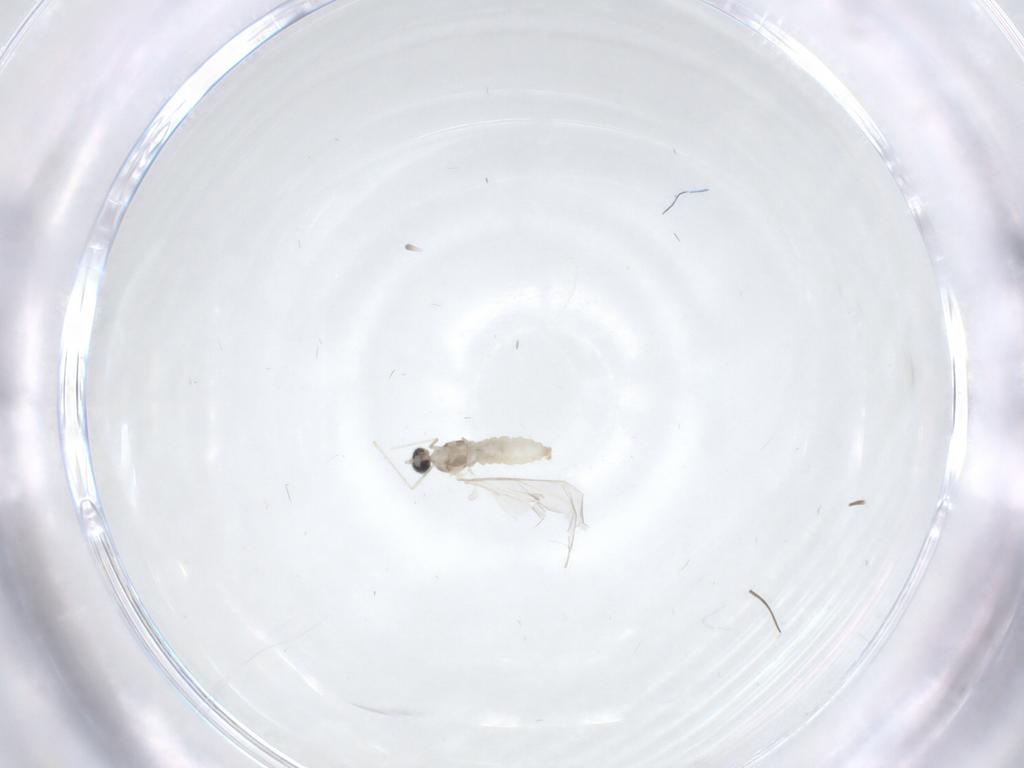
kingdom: Animalia
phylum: Arthropoda
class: Insecta
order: Diptera
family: Chironomidae
